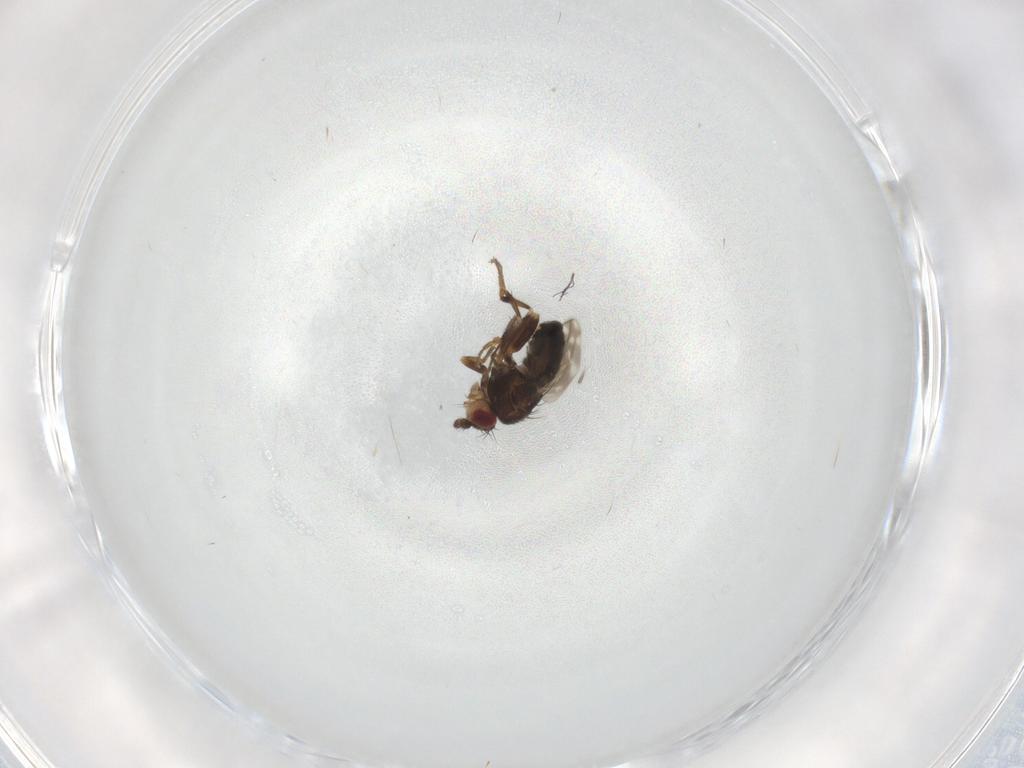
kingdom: Animalia
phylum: Arthropoda
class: Insecta
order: Diptera
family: Sphaeroceridae
